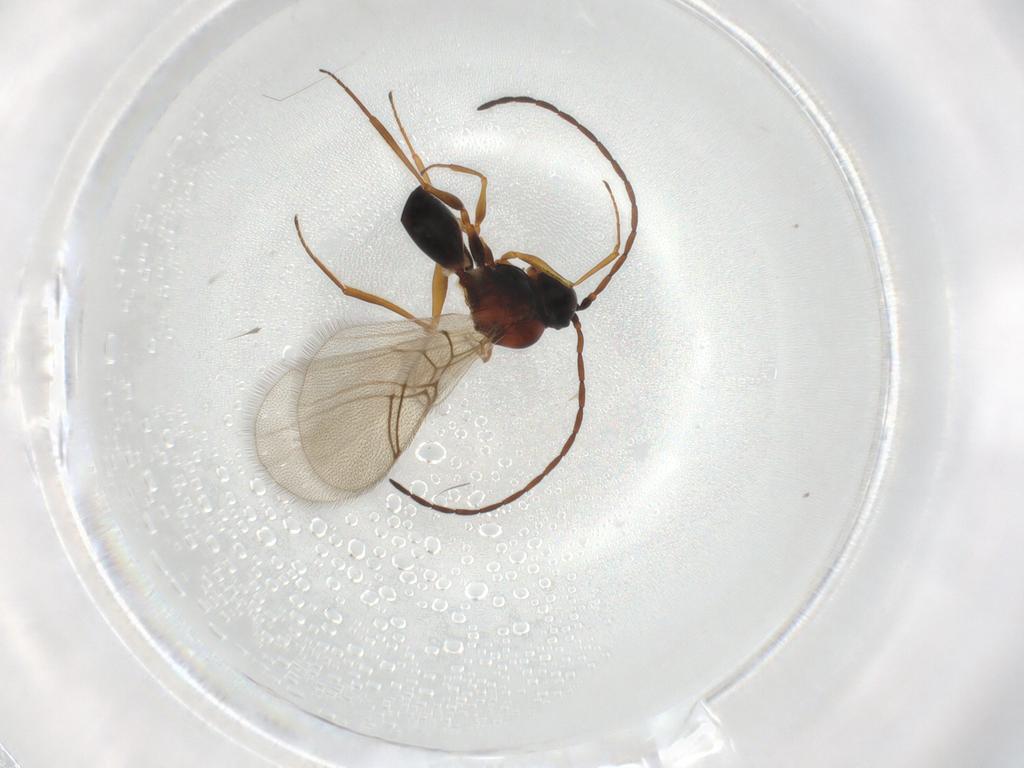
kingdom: Animalia
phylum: Arthropoda
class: Insecta
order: Hymenoptera
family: Figitidae
